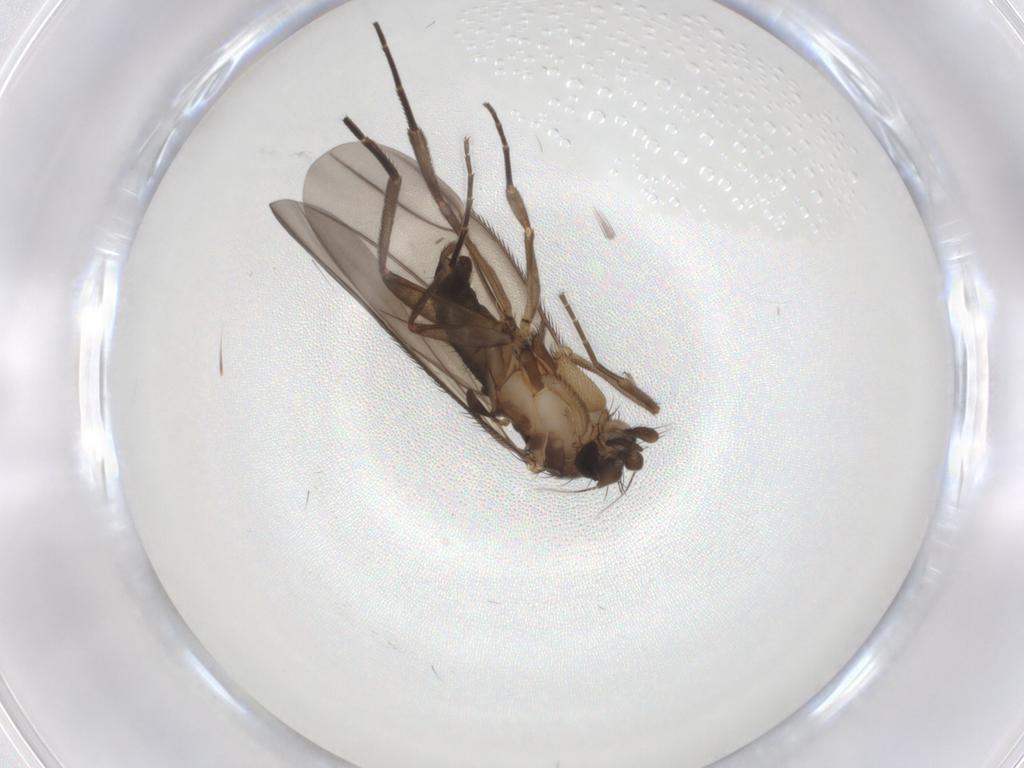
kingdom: Animalia
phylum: Arthropoda
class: Insecta
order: Diptera
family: Phoridae
